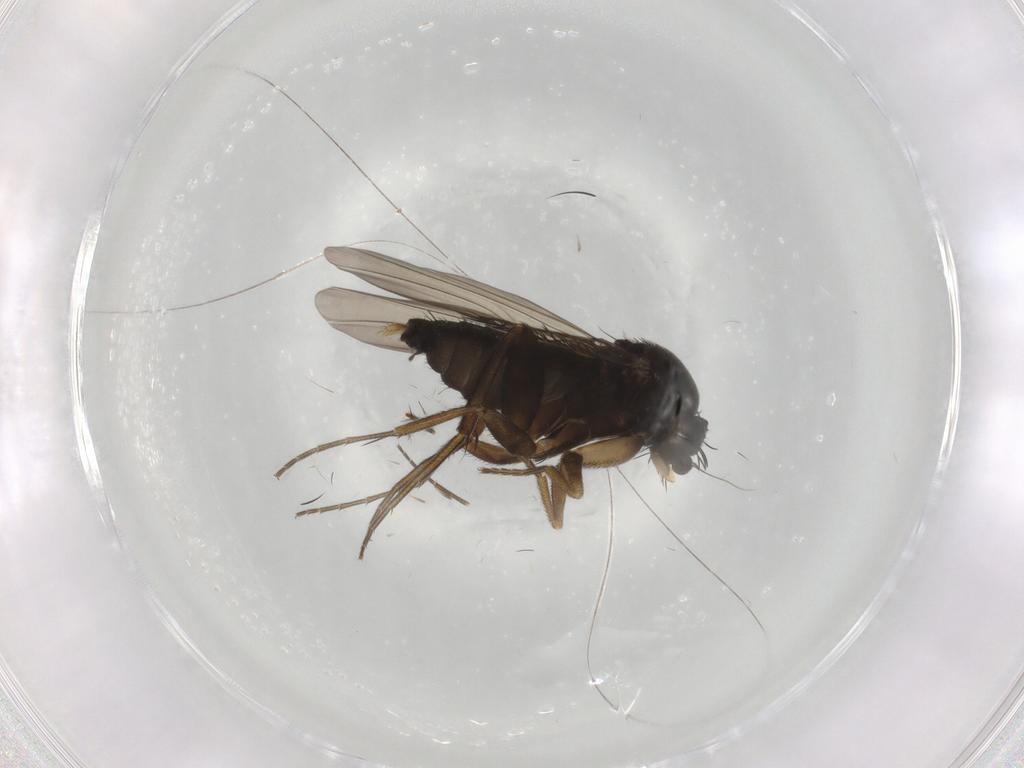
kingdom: Animalia
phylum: Arthropoda
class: Insecta
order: Diptera
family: Phoridae
